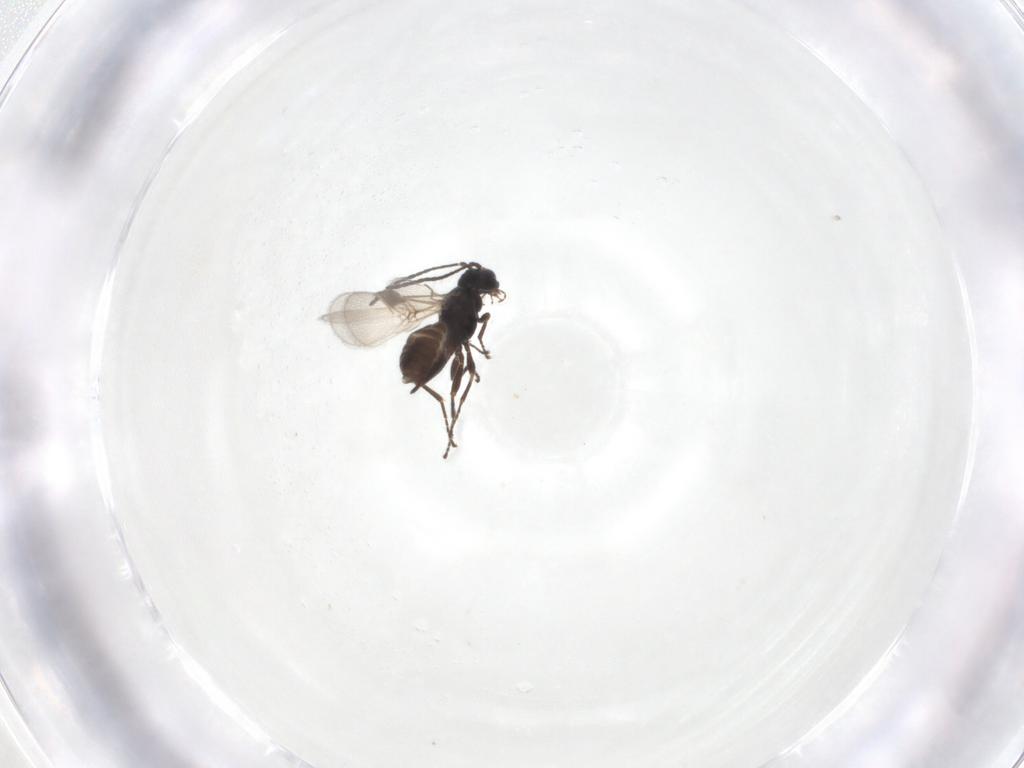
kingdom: Animalia
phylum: Arthropoda
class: Insecta
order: Hymenoptera
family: Braconidae
